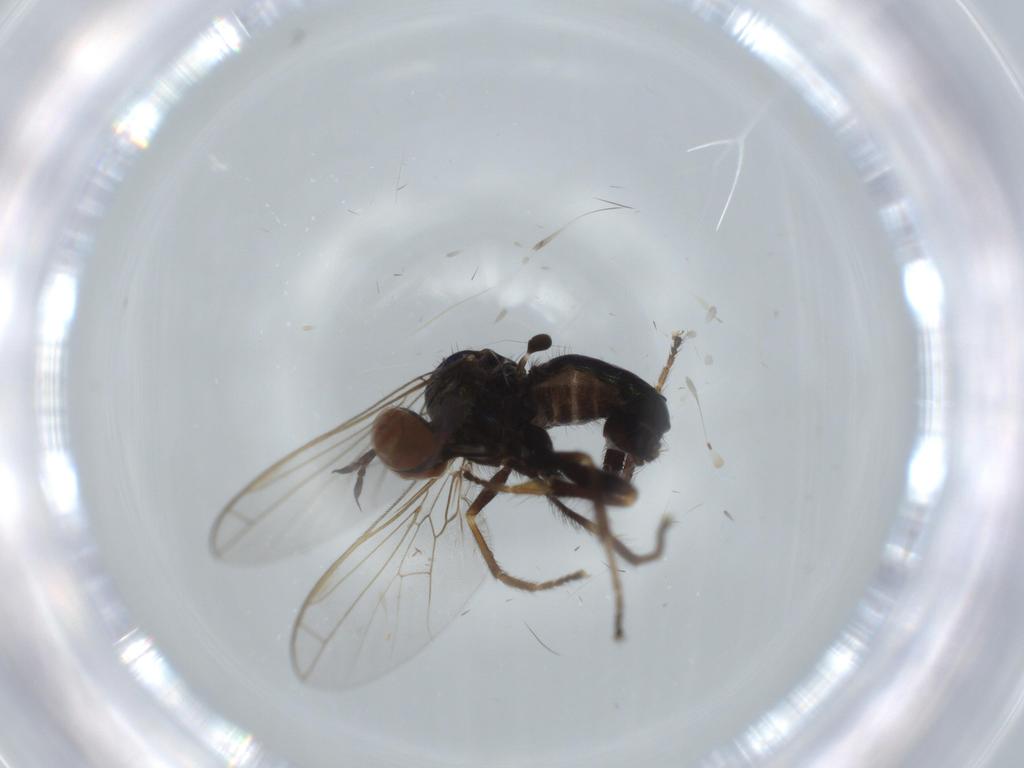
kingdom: Animalia
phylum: Arthropoda
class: Insecta
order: Diptera
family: Empididae
